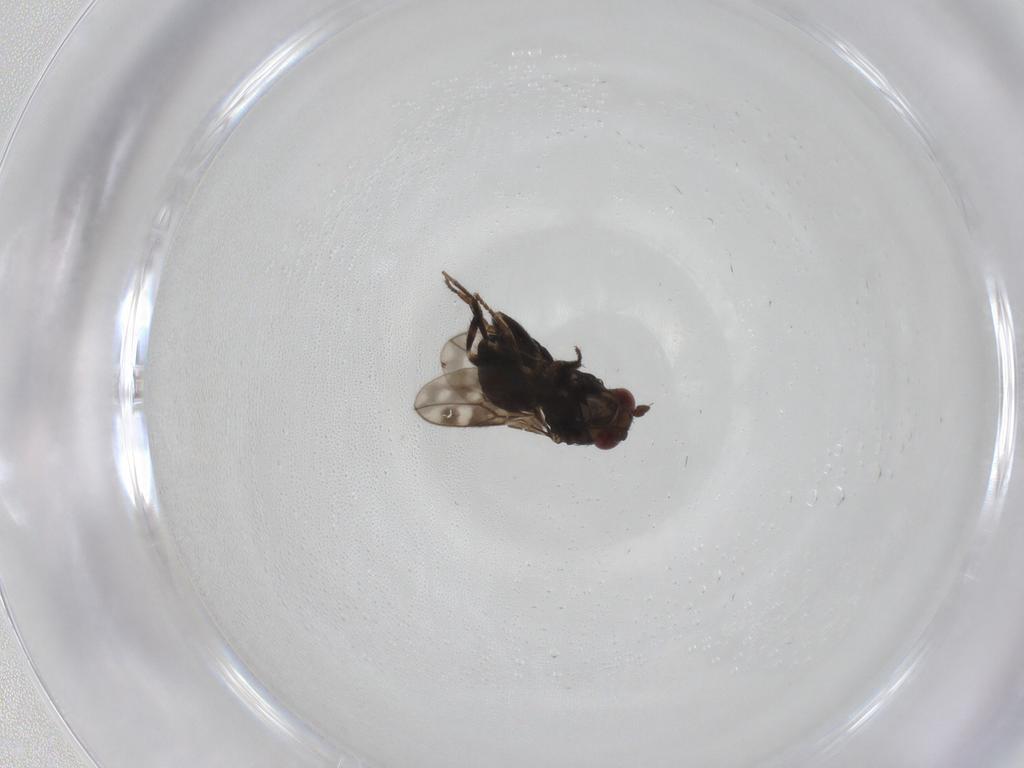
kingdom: Animalia
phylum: Arthropoda
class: Insecta
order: Diptera
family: Sphaeroceridae
